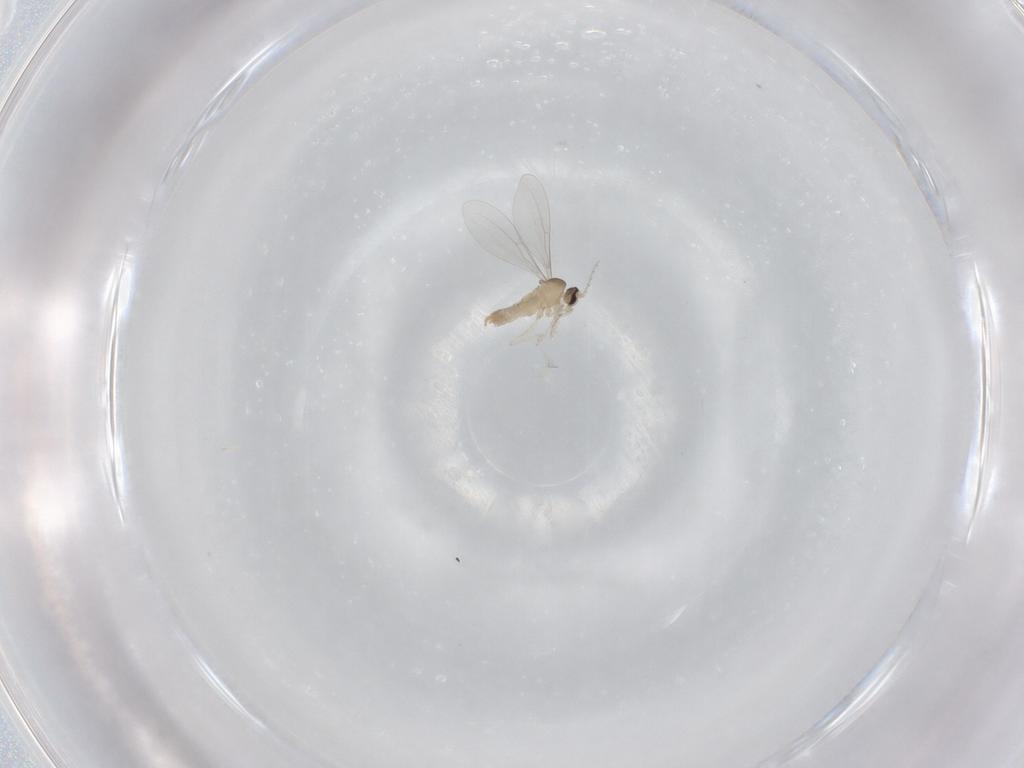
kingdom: Animalia
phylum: Arthropoda
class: Insecta
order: Diptera
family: Cecidomyiidae
